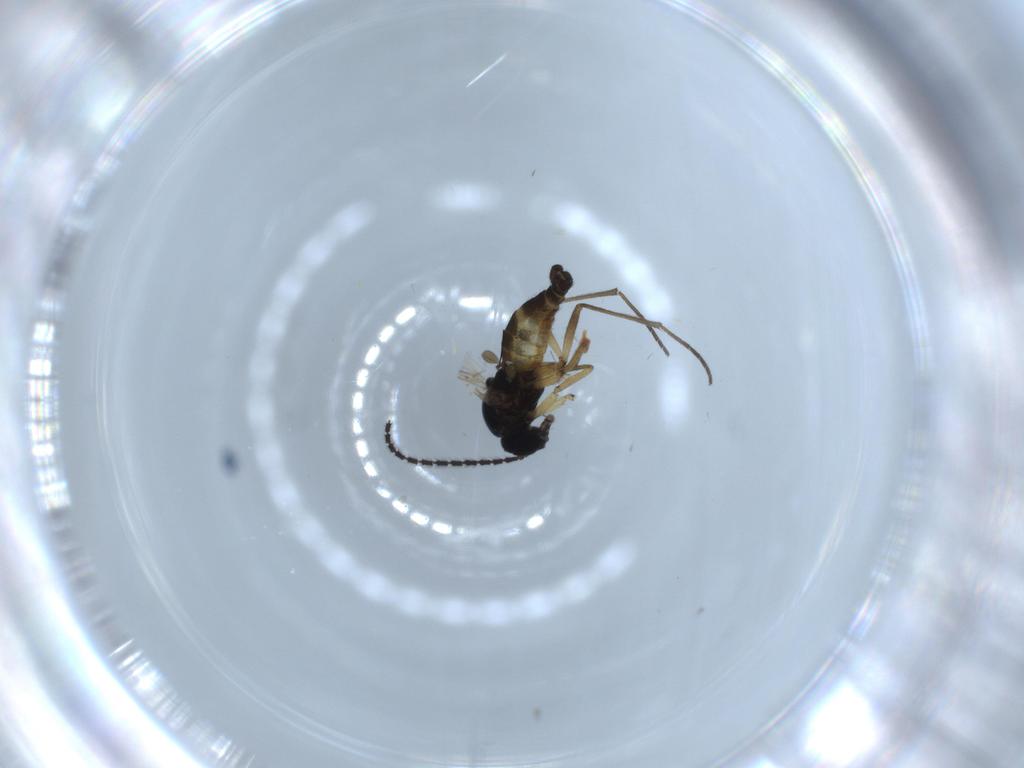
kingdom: Animalia
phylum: Arthropoda
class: Insecta
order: Diptera
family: Sciaridae
